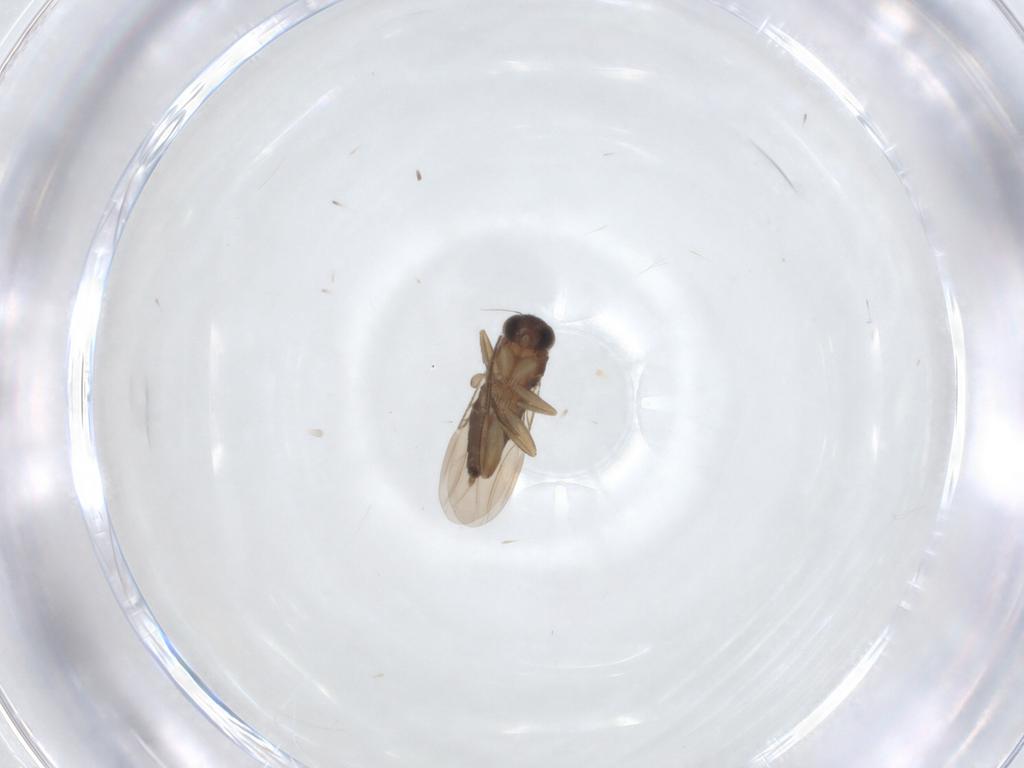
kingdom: Animalia
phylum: Arthropoda
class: Insecta
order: Diptera
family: Phoridae
